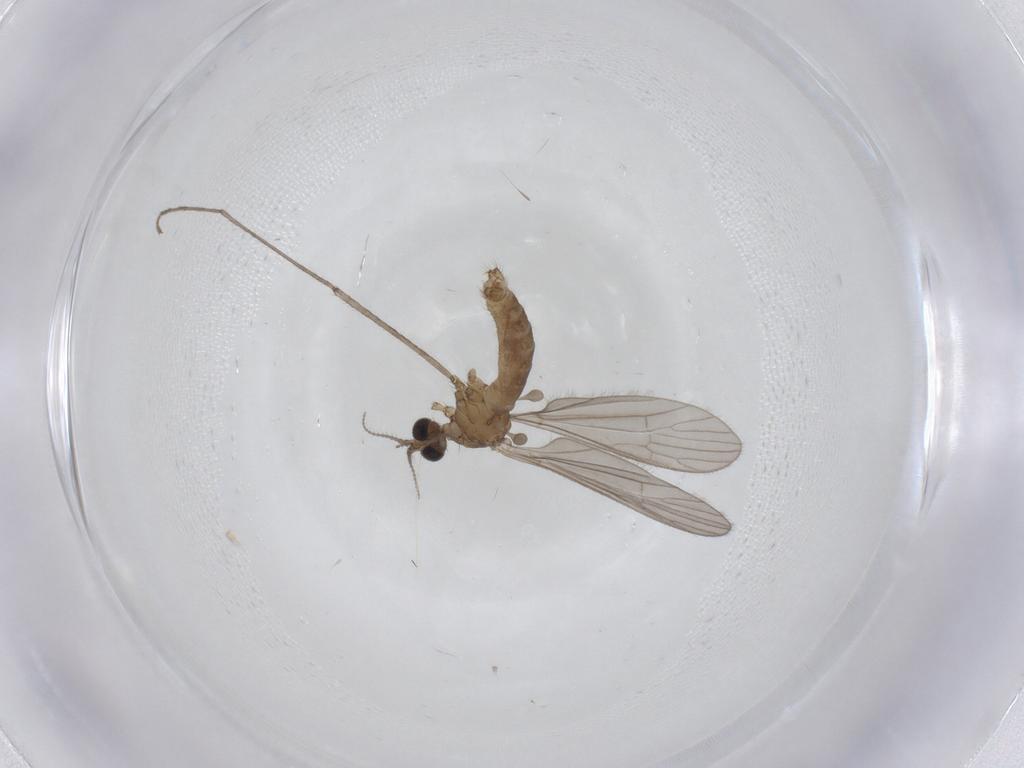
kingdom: Animalia
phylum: Arthropoda
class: Insecta
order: Diptera
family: Limoniidae
